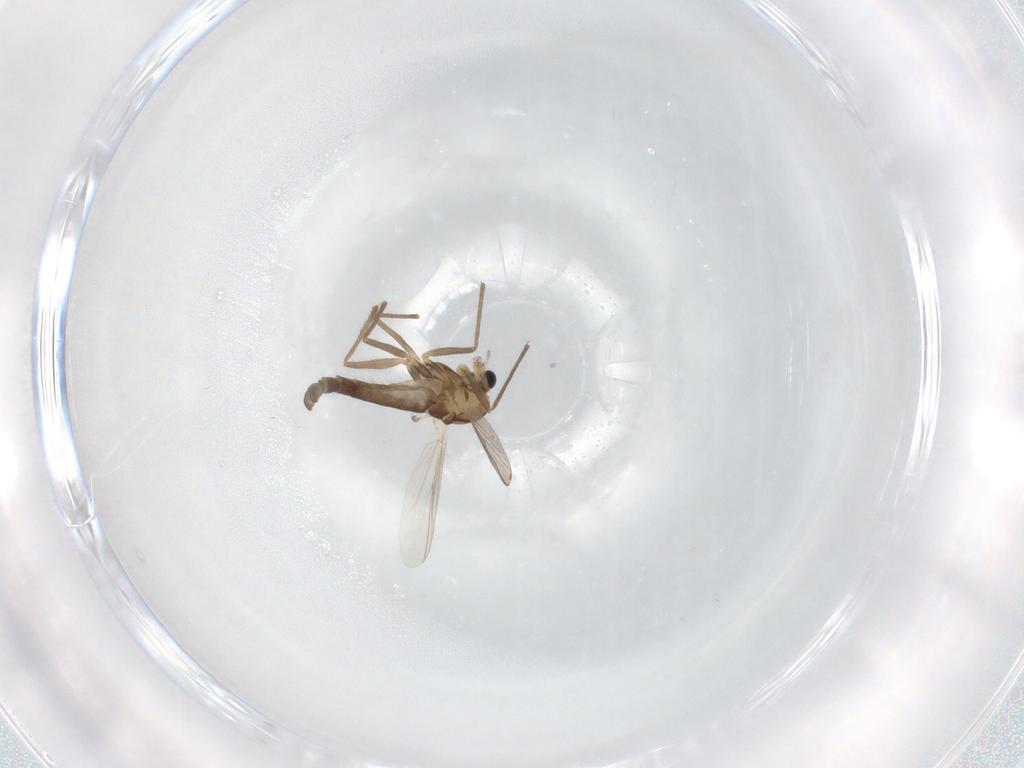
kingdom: Animalia
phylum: Arthropoda
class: Insecta
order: Diptera
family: Chironomidae
